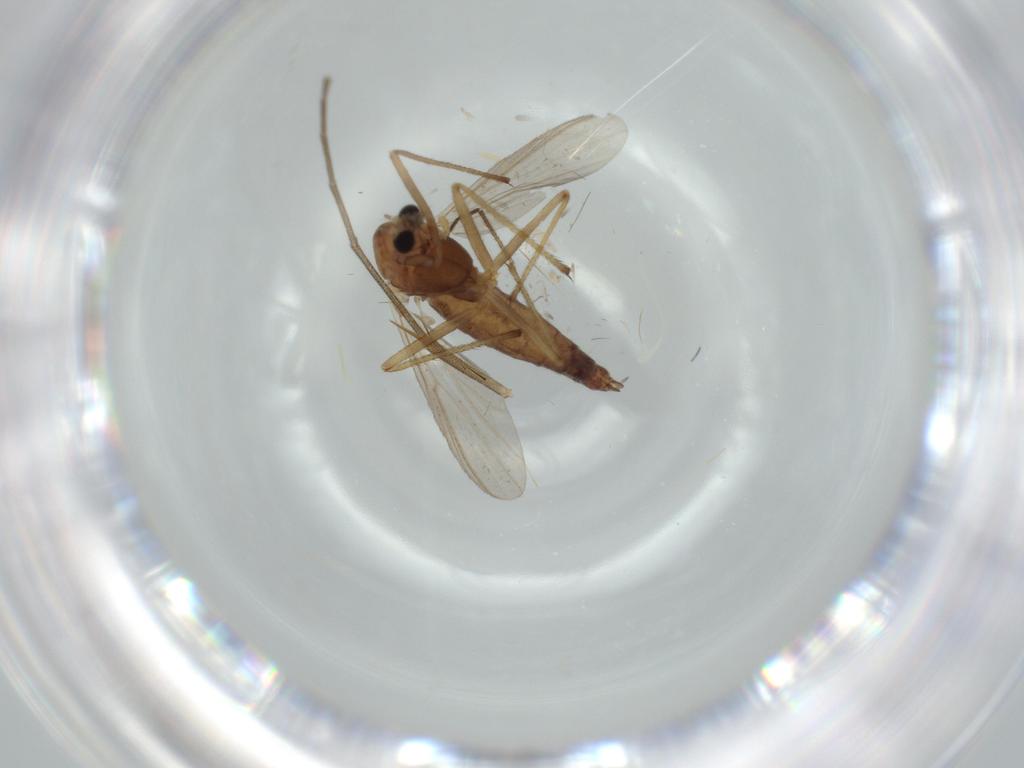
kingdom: Animalia
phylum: Arthropoda
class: Insecta
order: Diptera
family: Chironomidae
